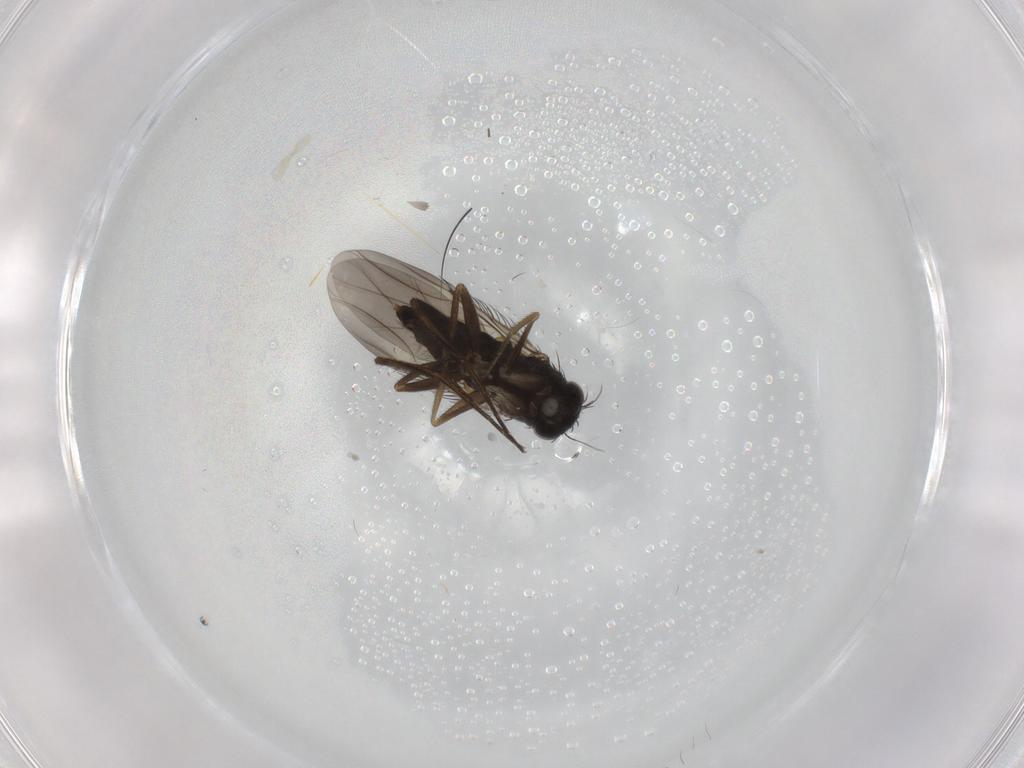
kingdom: Animalia
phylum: Arthropoda
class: Insecta
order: Diptera
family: Phoridae
